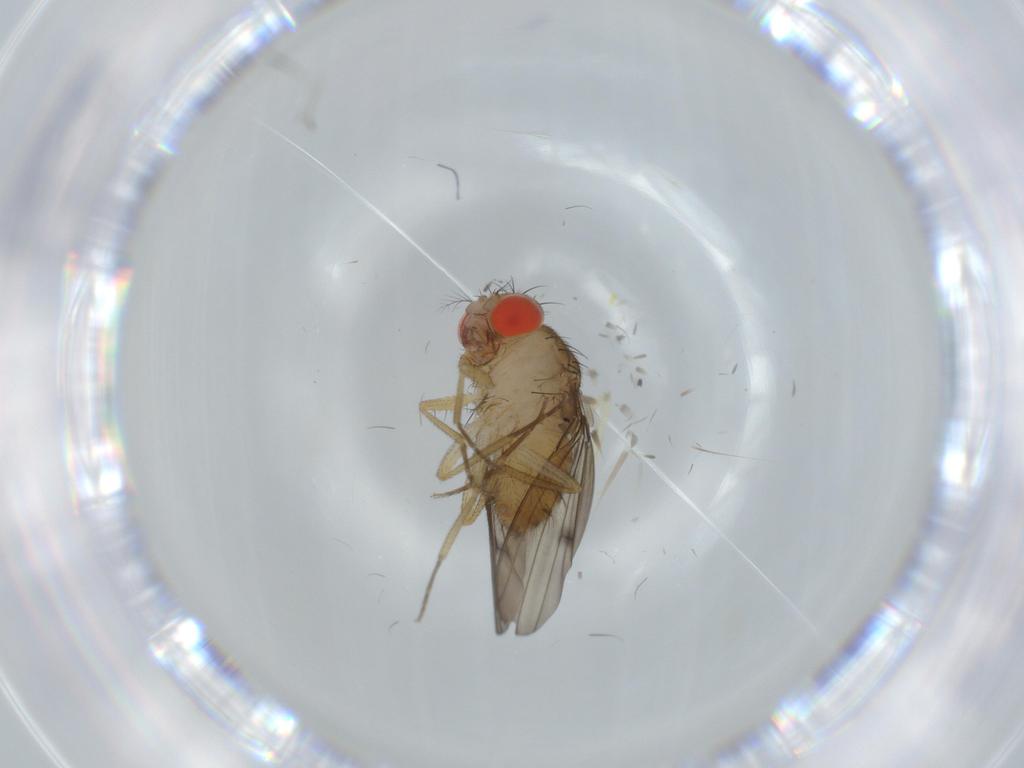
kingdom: Animalia
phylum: Arthropoda
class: Insecta
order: Diptera
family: Drosophilidae
